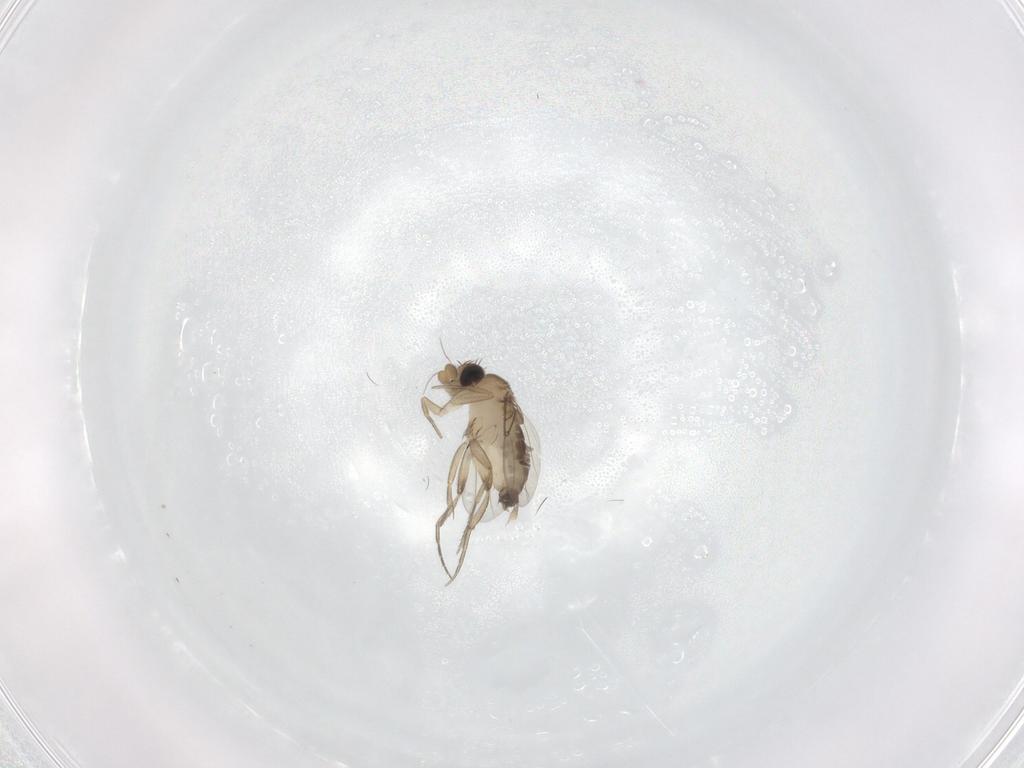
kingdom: Animalia
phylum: Arthropoda
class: Insecta
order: Diptera
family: Phoridae
